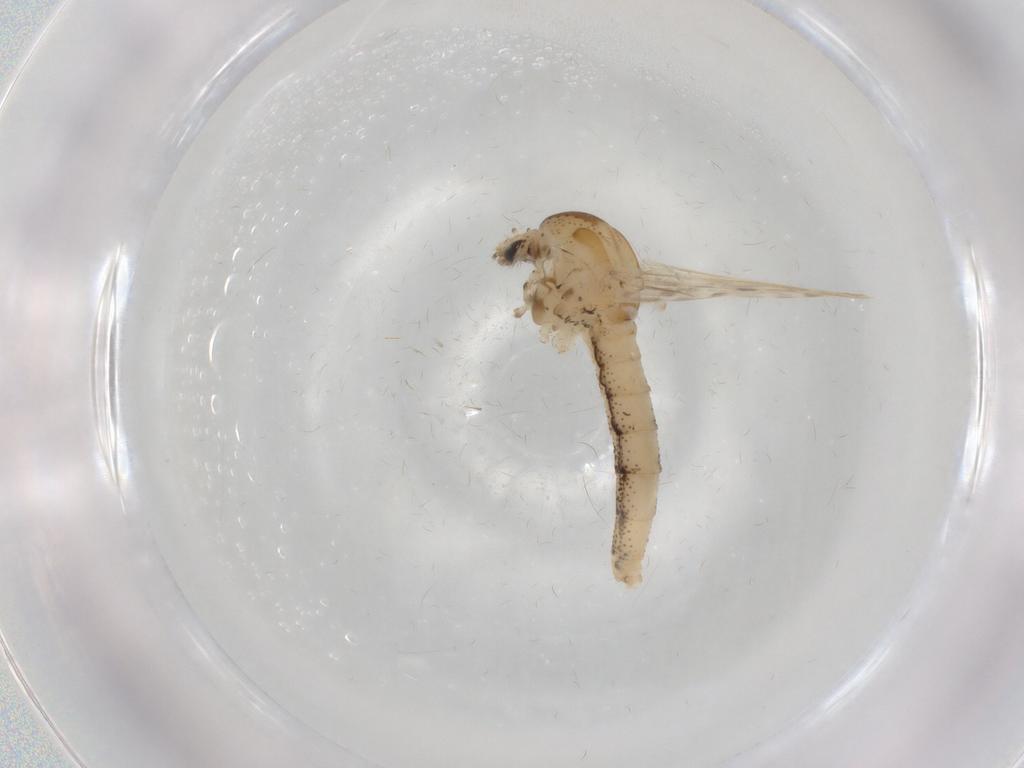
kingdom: Animalia
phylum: Arthropoda
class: Insecta
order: Diptera
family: Chaoboridae
